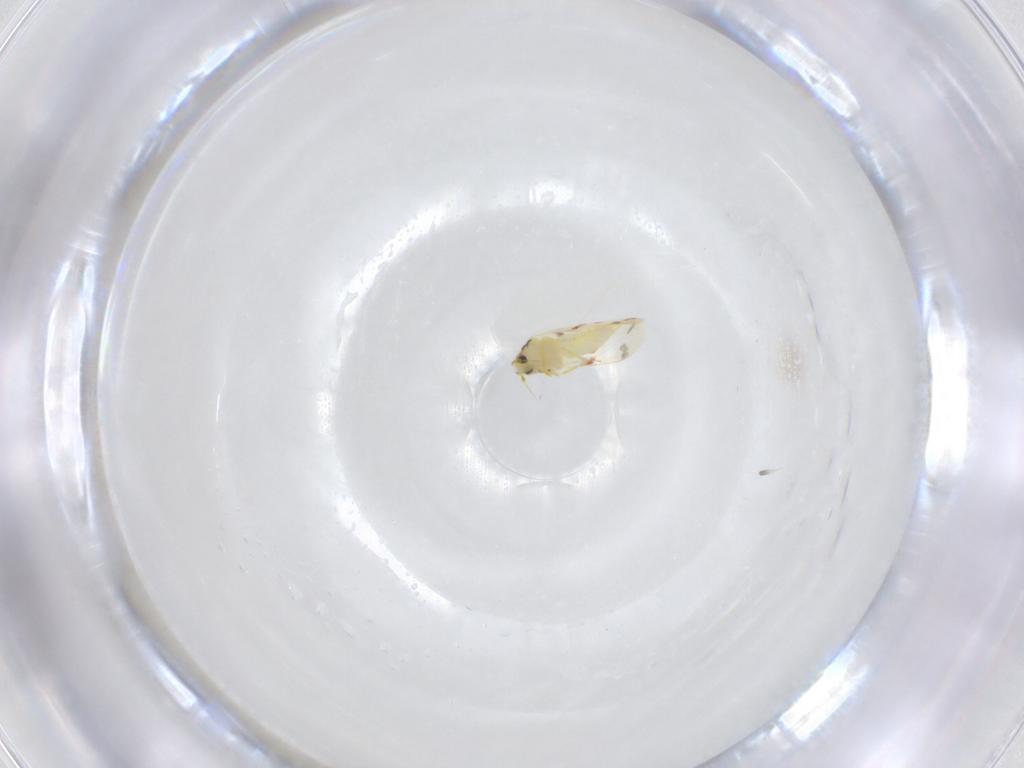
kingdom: Animalia
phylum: Arthropoda
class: Insecta
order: Hemiptera
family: Aleyrodidae
